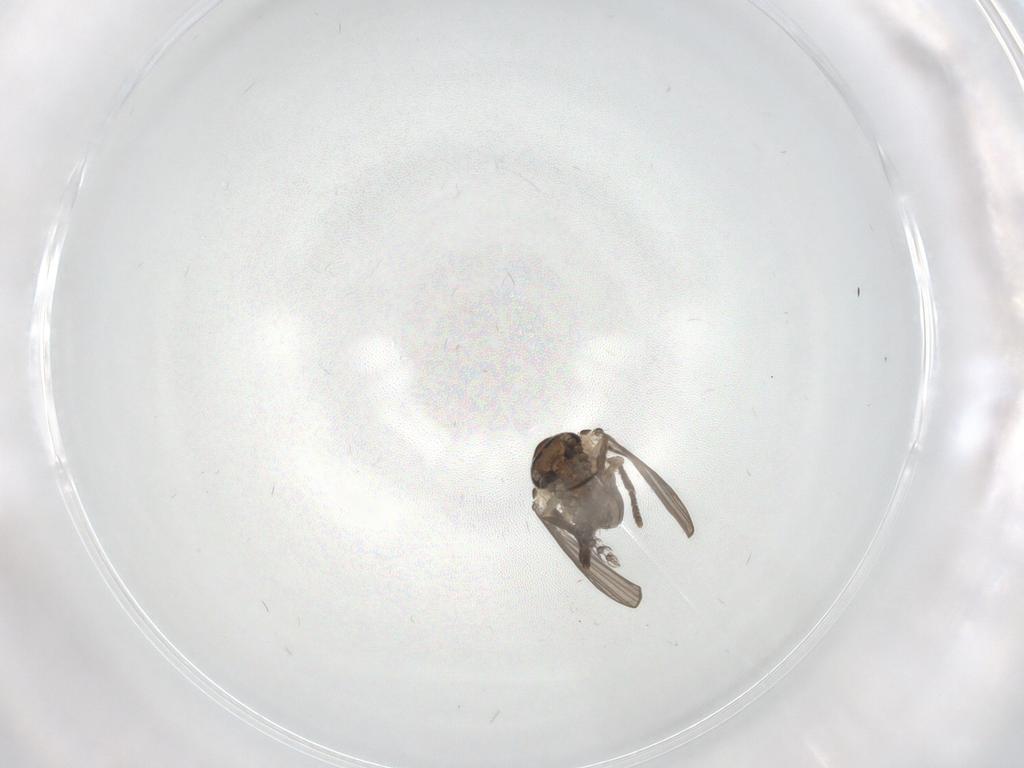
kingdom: Animalia
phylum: Arthropoda
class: Insecta
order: Diptera
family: Psychodidae
